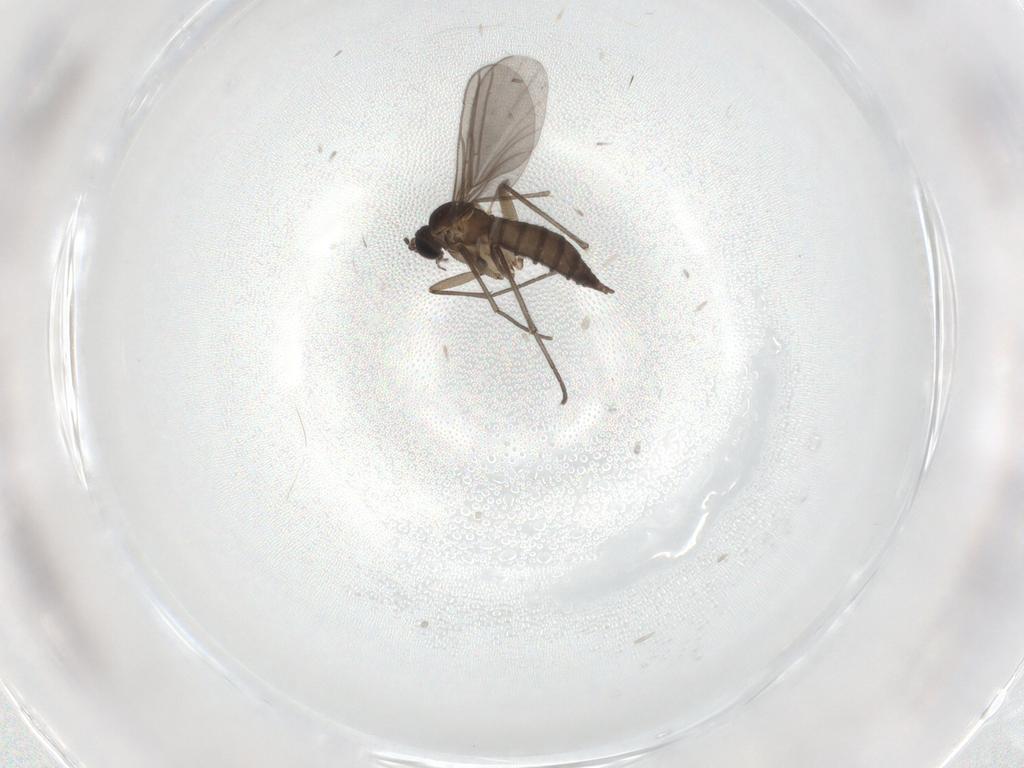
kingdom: Animalia
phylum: Arthropoda
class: Insecta
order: Diptera
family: Sciaridae
